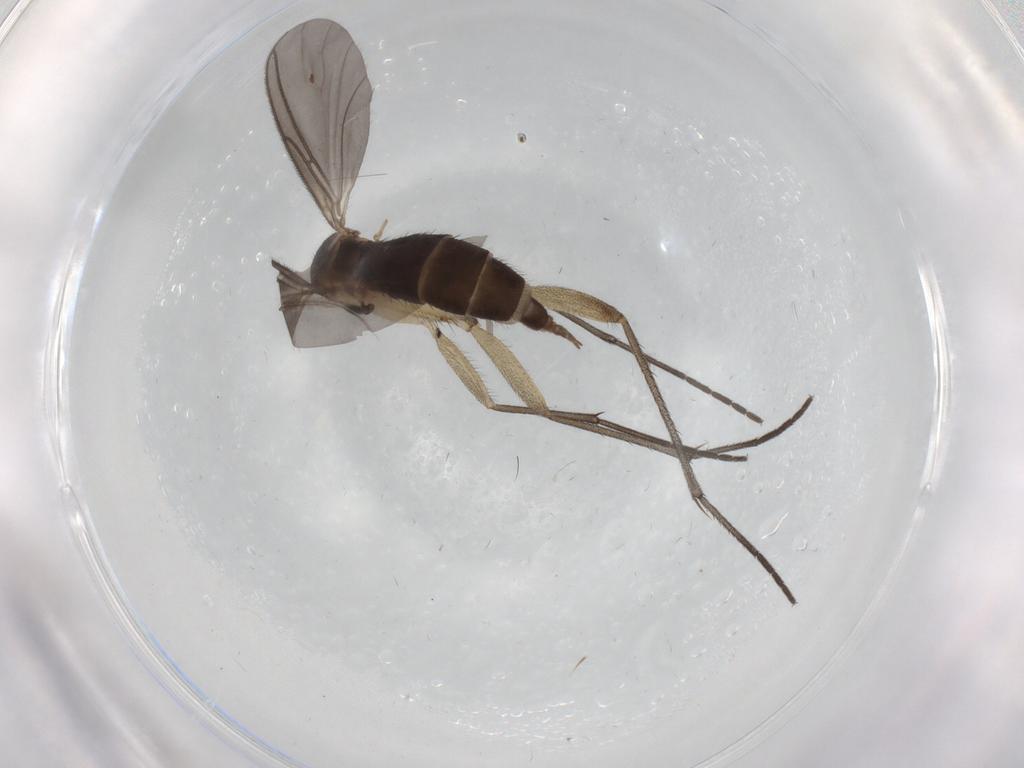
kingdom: Animalia
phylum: Arthropoda
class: Insecta
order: Diptera
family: Sciaridae
